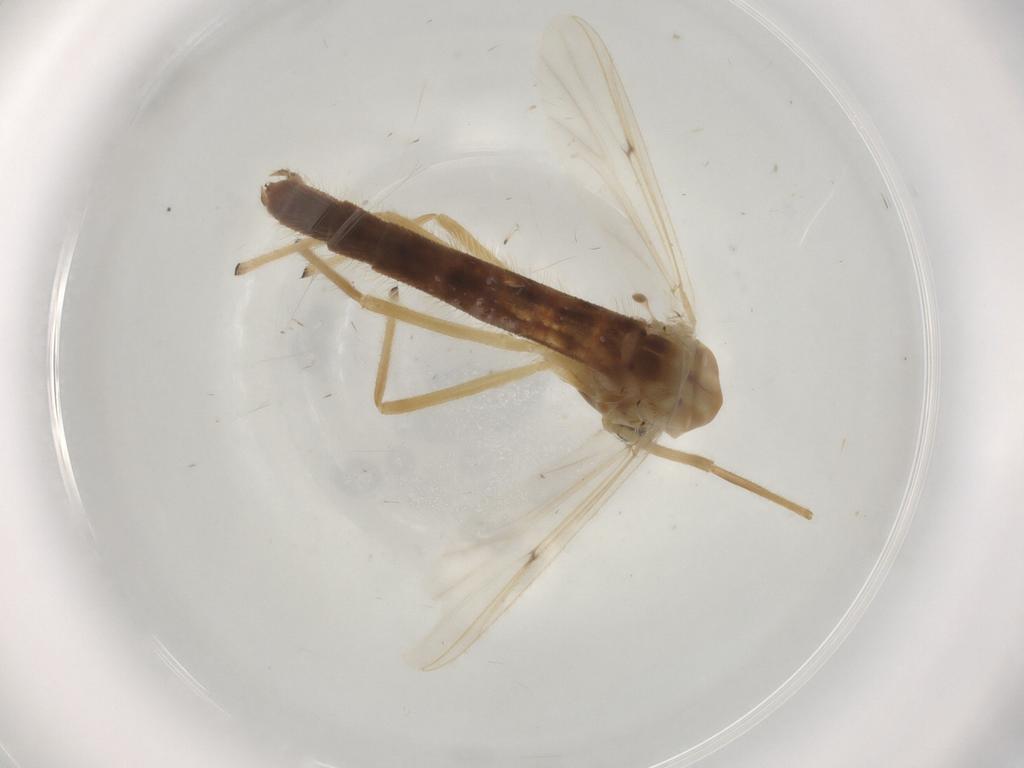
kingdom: Animalia
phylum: Arthropoda
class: Insecta
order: Diptera
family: Chironomidae
